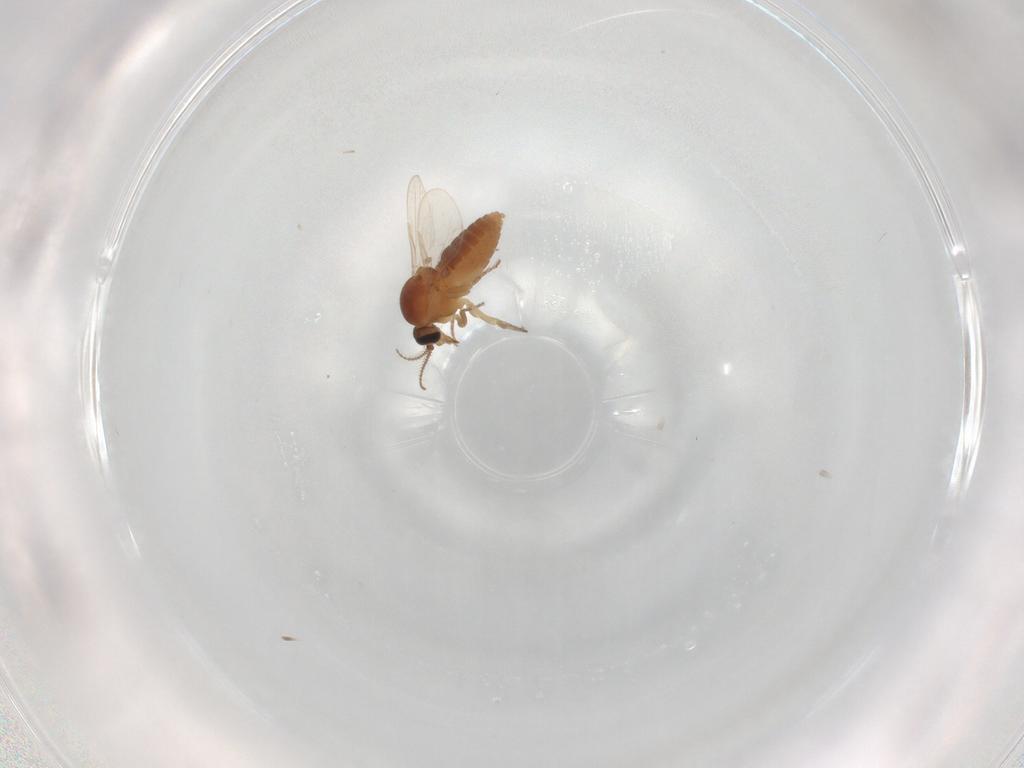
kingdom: Animalia
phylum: Arthropoda
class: Insecta
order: Diptera
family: Ceratopogonidae
